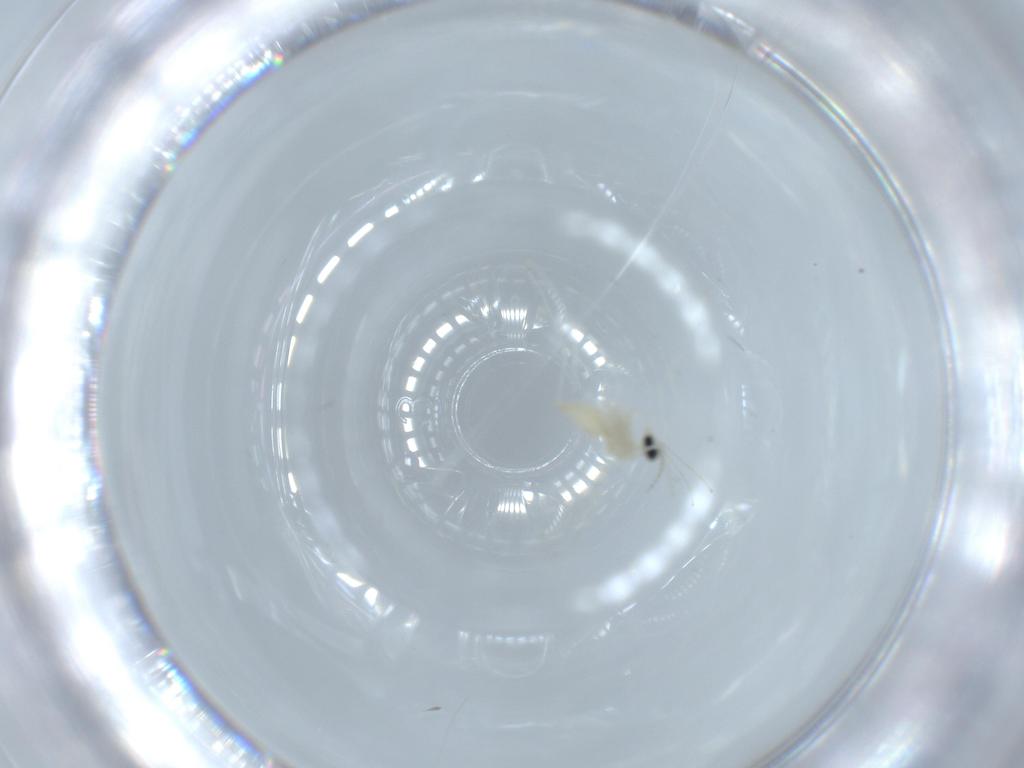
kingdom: Animalia
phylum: Arthropoda
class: Insecta
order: Diptera
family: Cecidomyiidae
